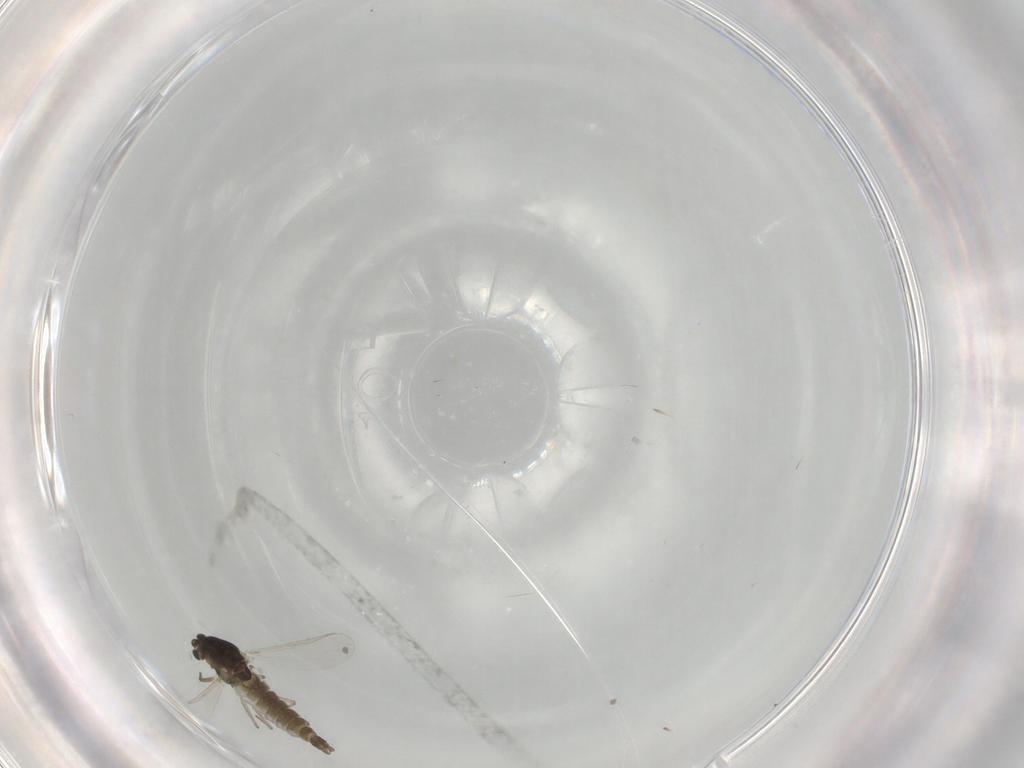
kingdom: Animalia
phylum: Arthropoda
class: Insecta
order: Diptera
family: Chironomidae
